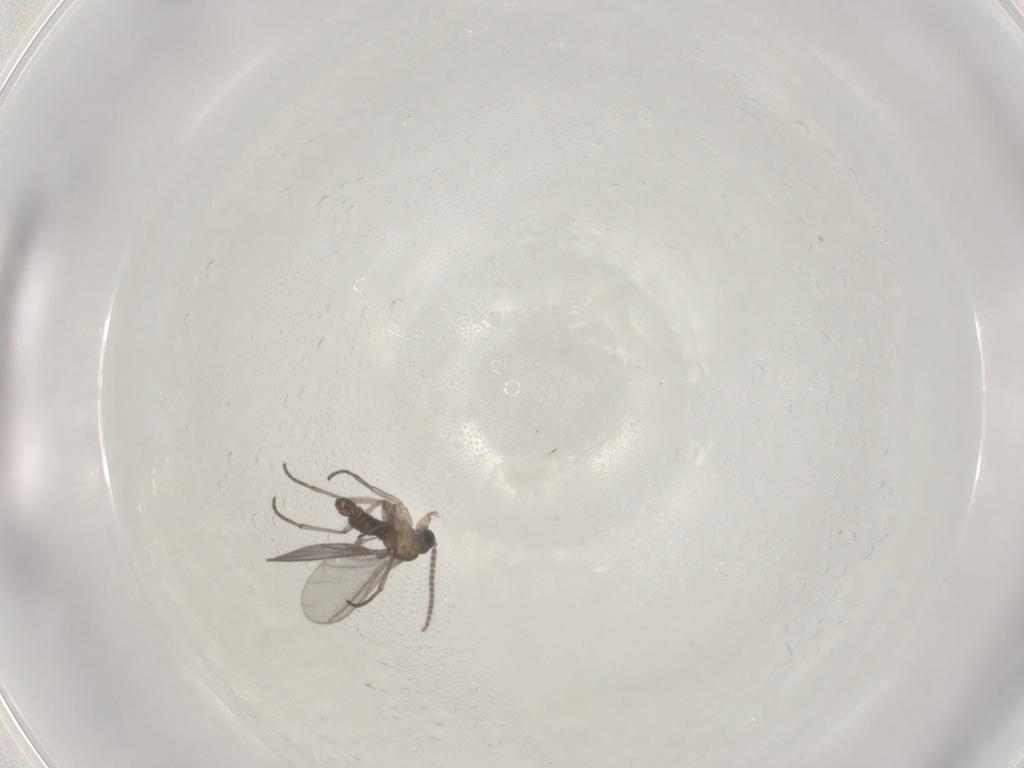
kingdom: Animalia
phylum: Arthropoda
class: Insecta
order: Diptera
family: Sciaridae
